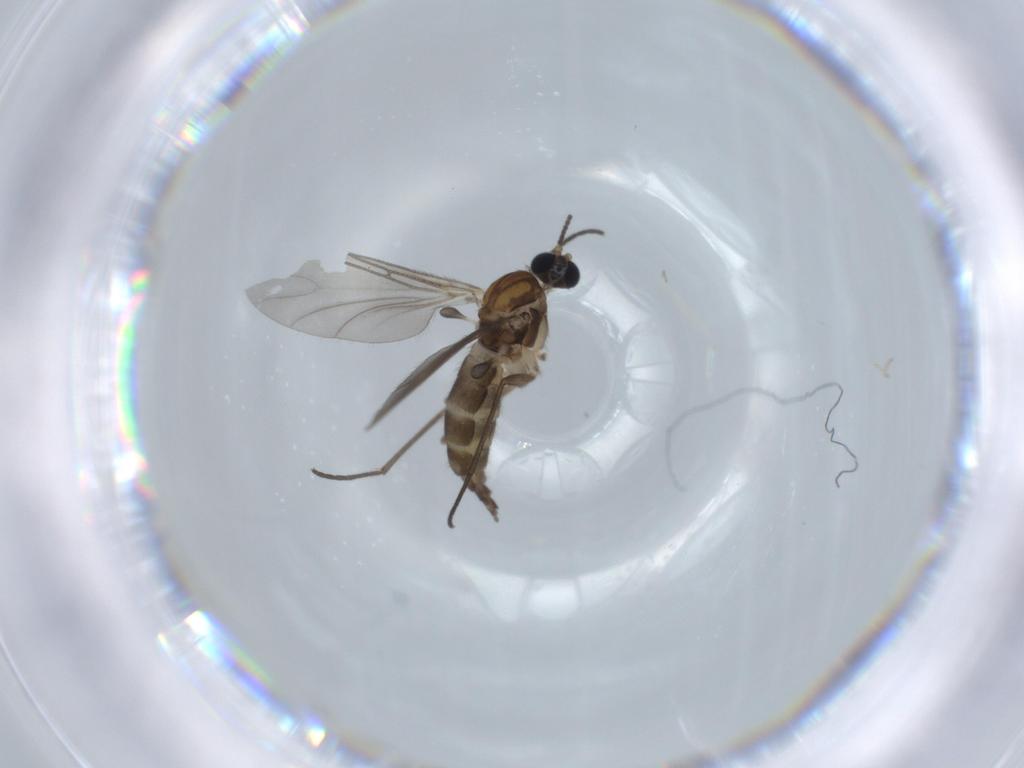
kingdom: Animalia
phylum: Arthropoda
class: Insecta
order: Diptera
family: Sciaridae
